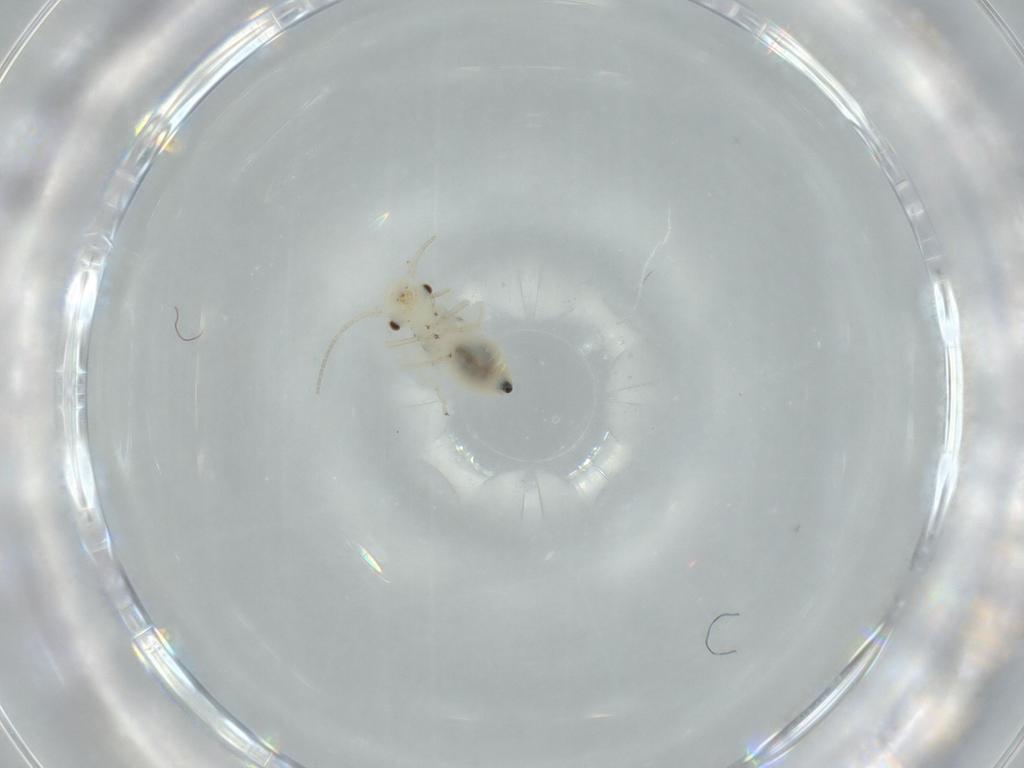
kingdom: Animalia
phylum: Arthropoda
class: Insecta
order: Psocodea
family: Caeciliusidae
